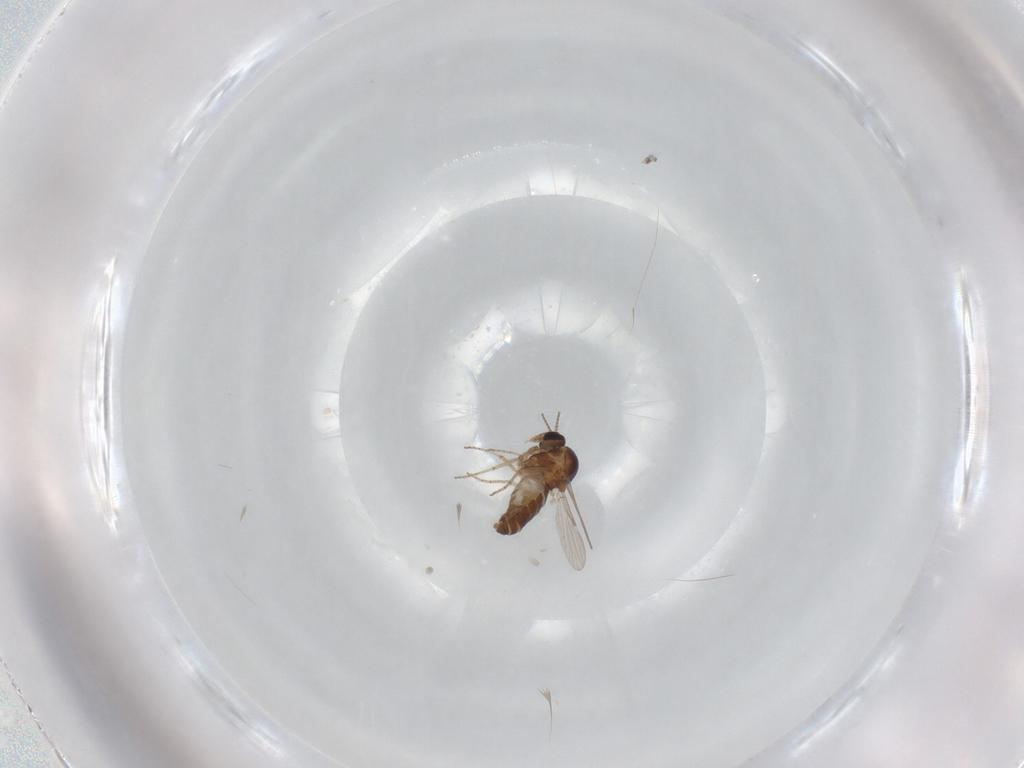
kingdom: Animalia
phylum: Arthropoda
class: Insecta
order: Diptera
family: Ceratopogonidae
